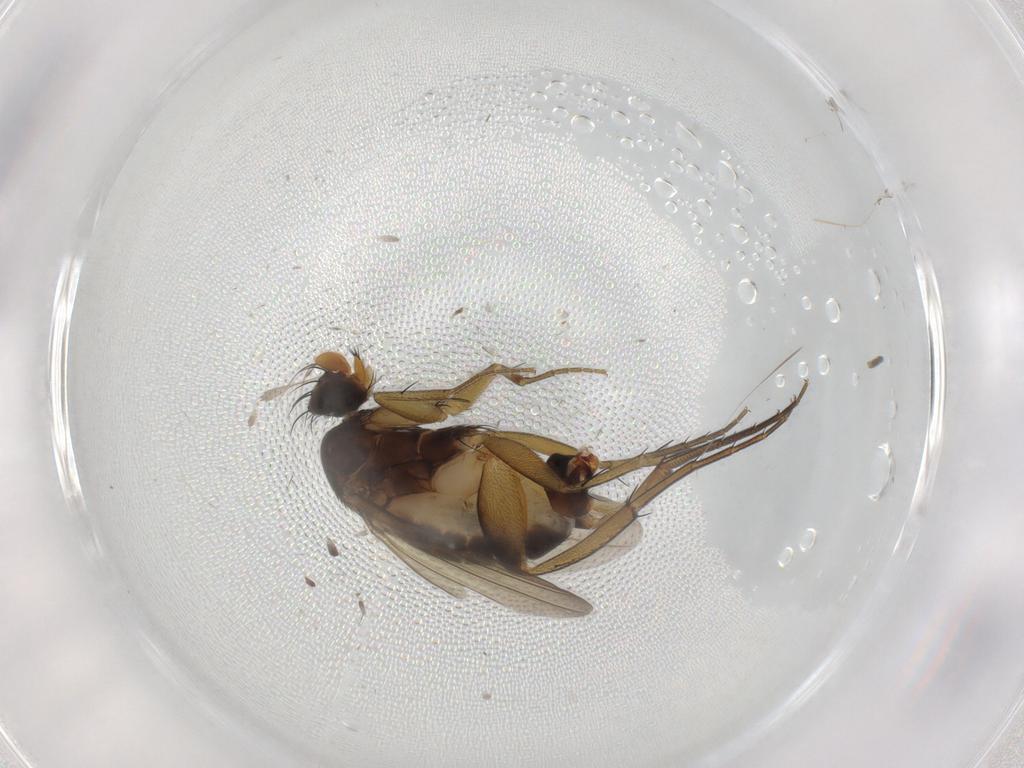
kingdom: Animalia
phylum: Arthropoda
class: Insecta
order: Diptera
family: Phoridae
